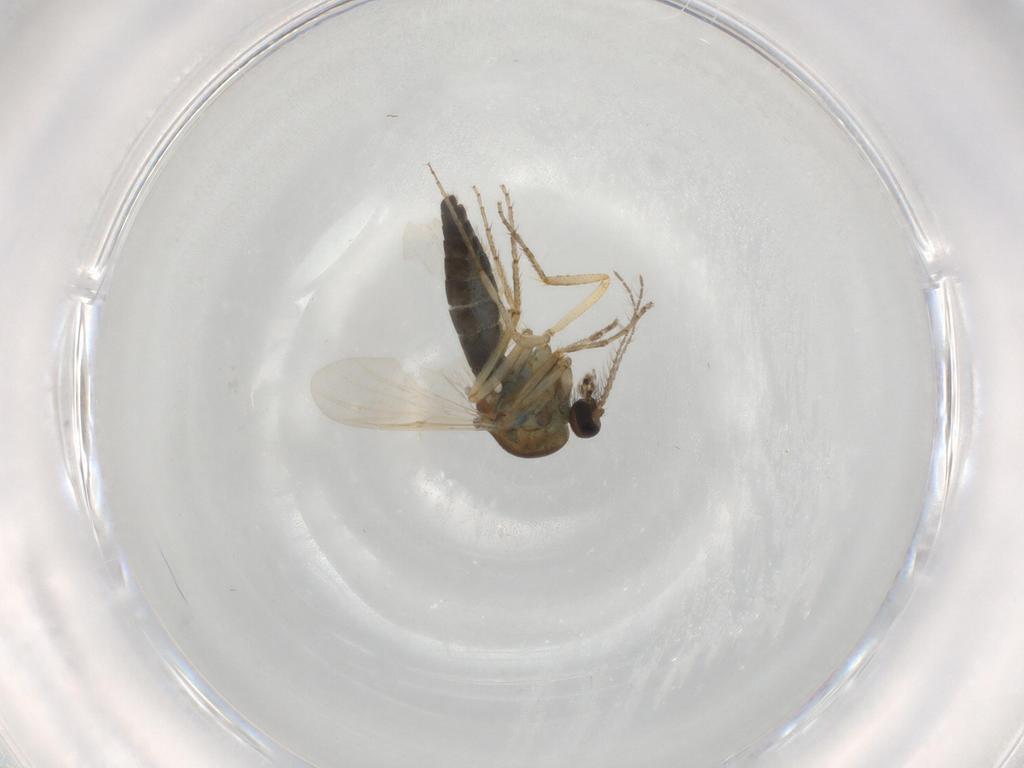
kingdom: Animalia
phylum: Arthropoda
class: Insecta
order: Diptera
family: Ceratopogonidae
